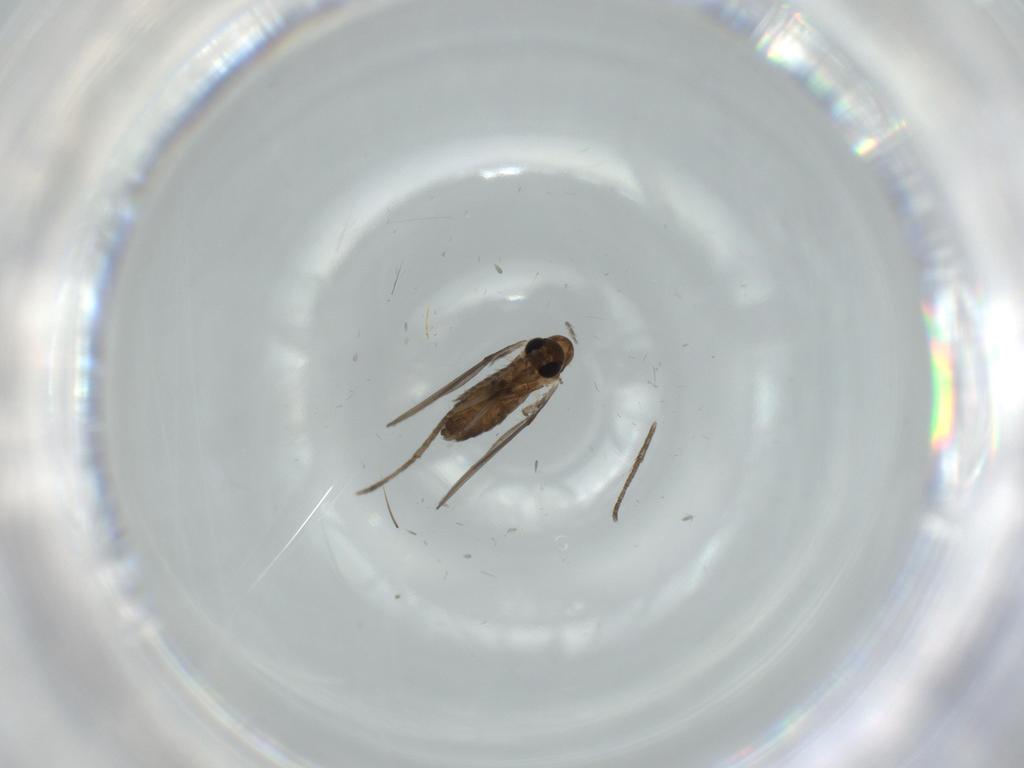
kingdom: Animalia
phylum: Arthropoda
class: Insecta
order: Diptera
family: Psychodidae
